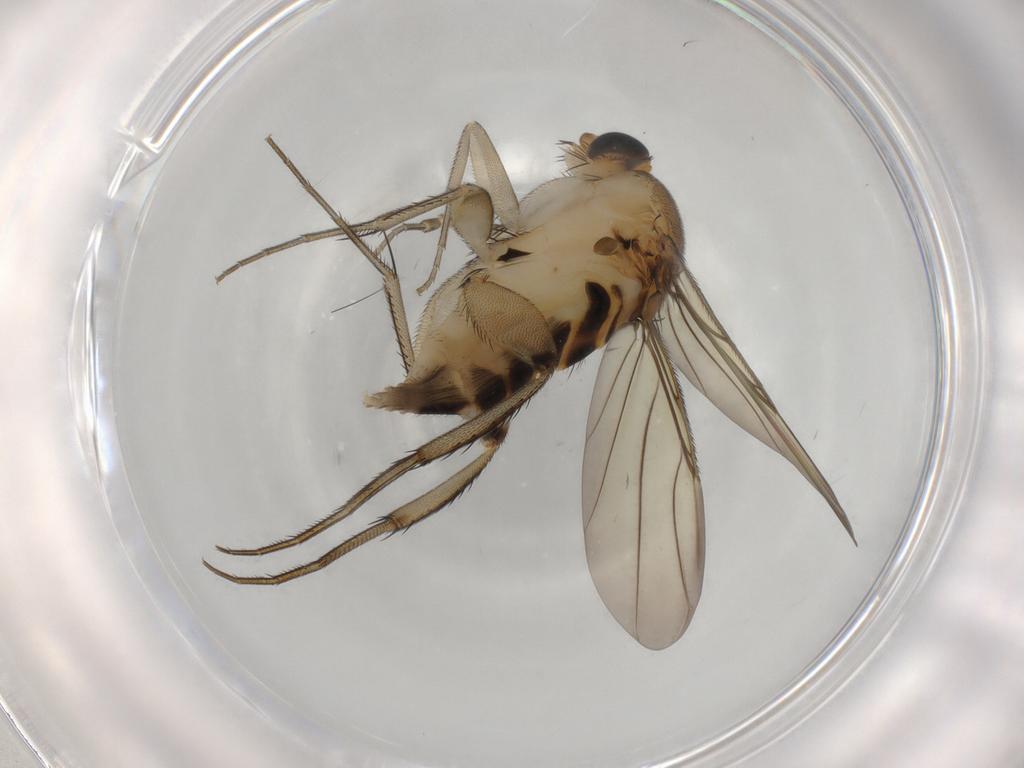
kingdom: Animalia
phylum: Arthropoda
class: Insecta
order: Diptera
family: Phoridae
